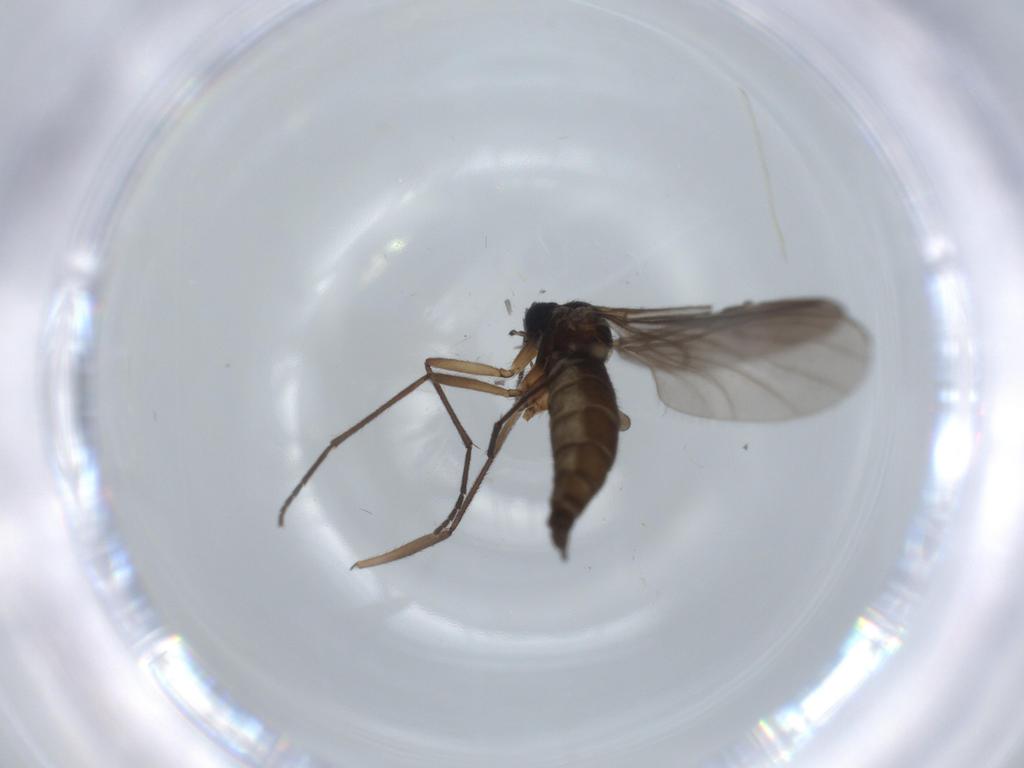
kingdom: Animalia
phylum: Arthropoda
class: Insecta
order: Diptera
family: Sciaridae
